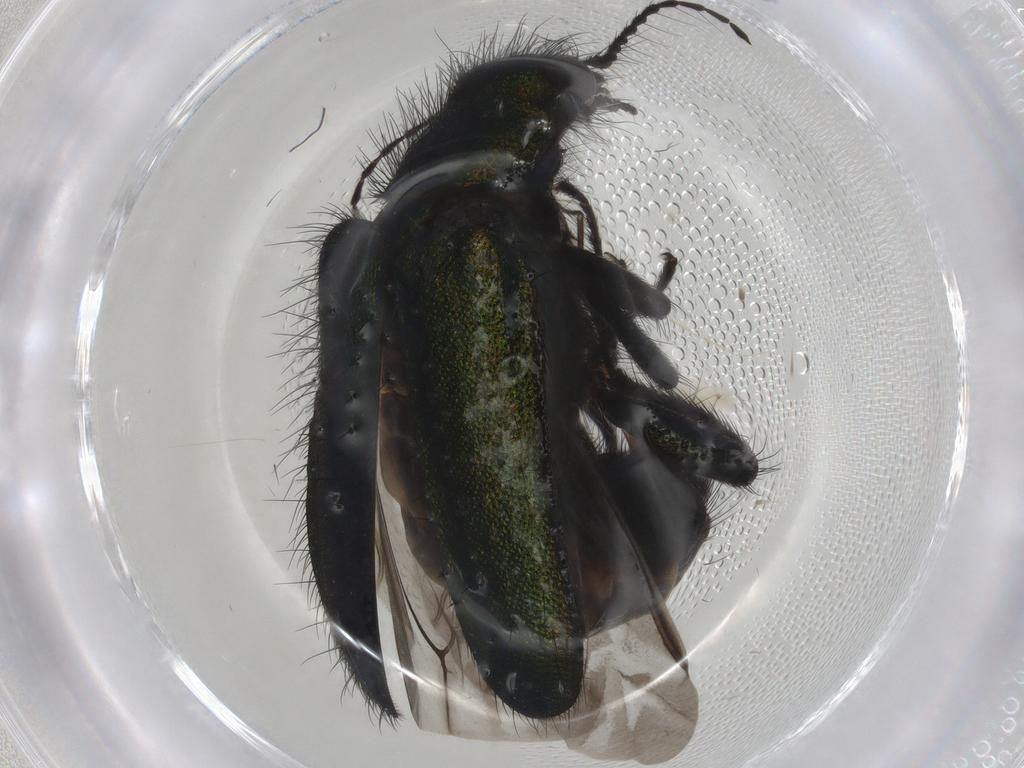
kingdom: Animalia
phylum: Arthropoda
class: Insecta
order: Coleoptera
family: Melyridae
